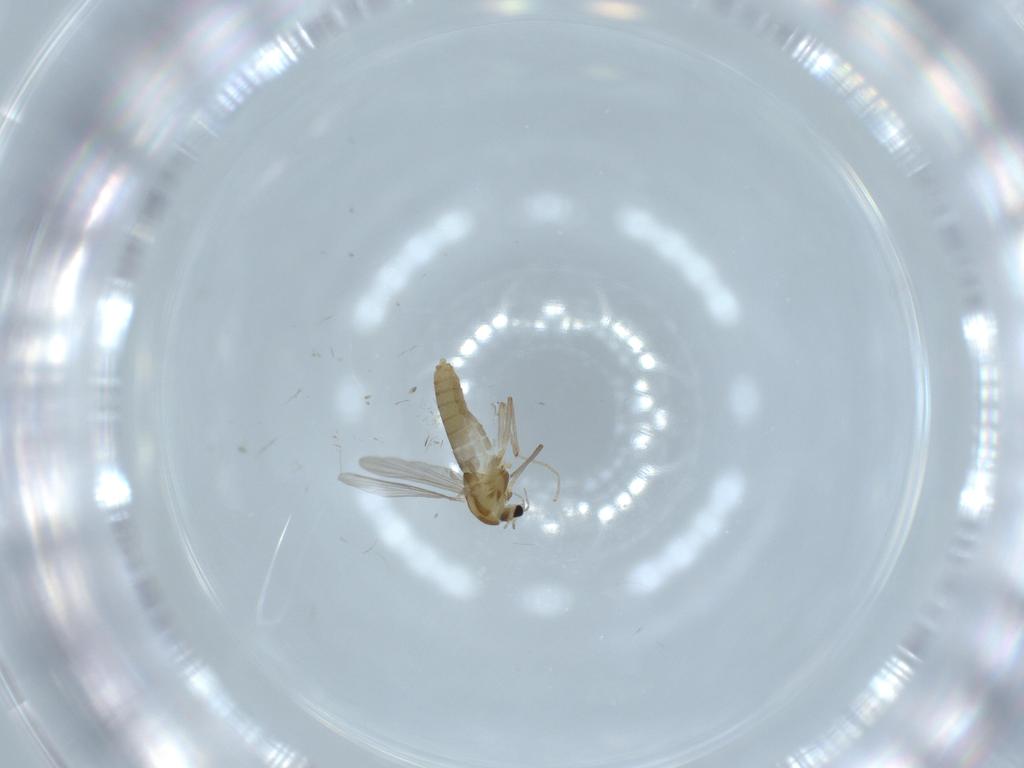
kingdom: Animalia
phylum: Arthropoda
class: Insecta
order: Diptera
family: Chironomidae
